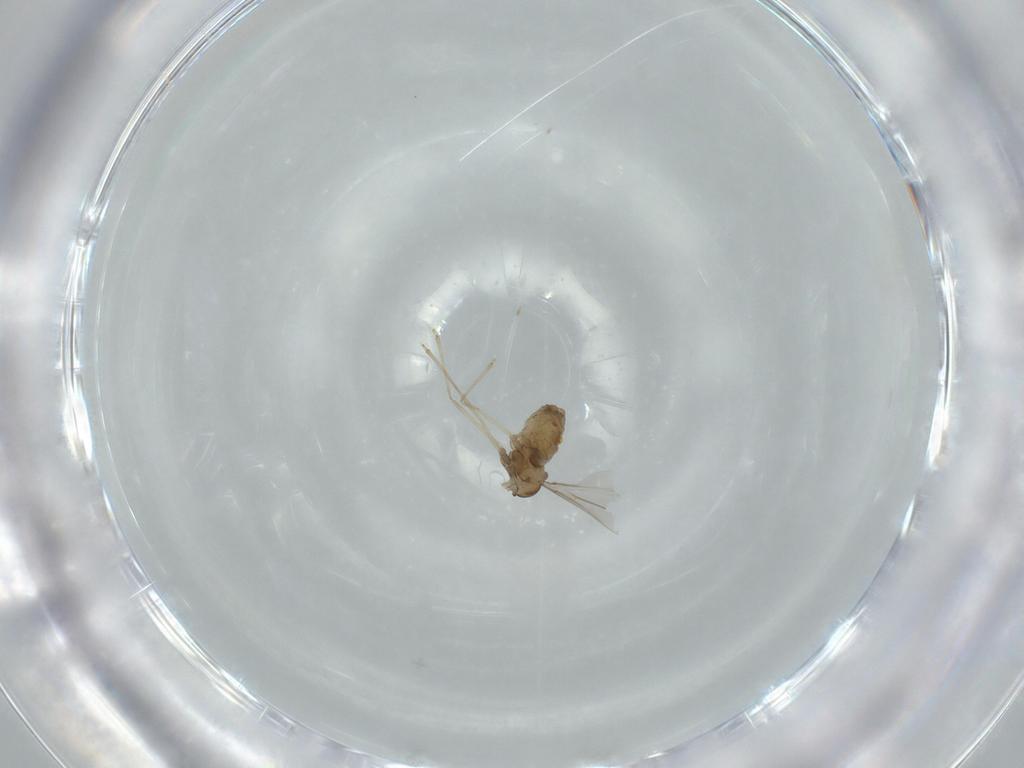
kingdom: Animalia
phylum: Arthropoda
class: Insecta
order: Diptera
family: Psychodidae
